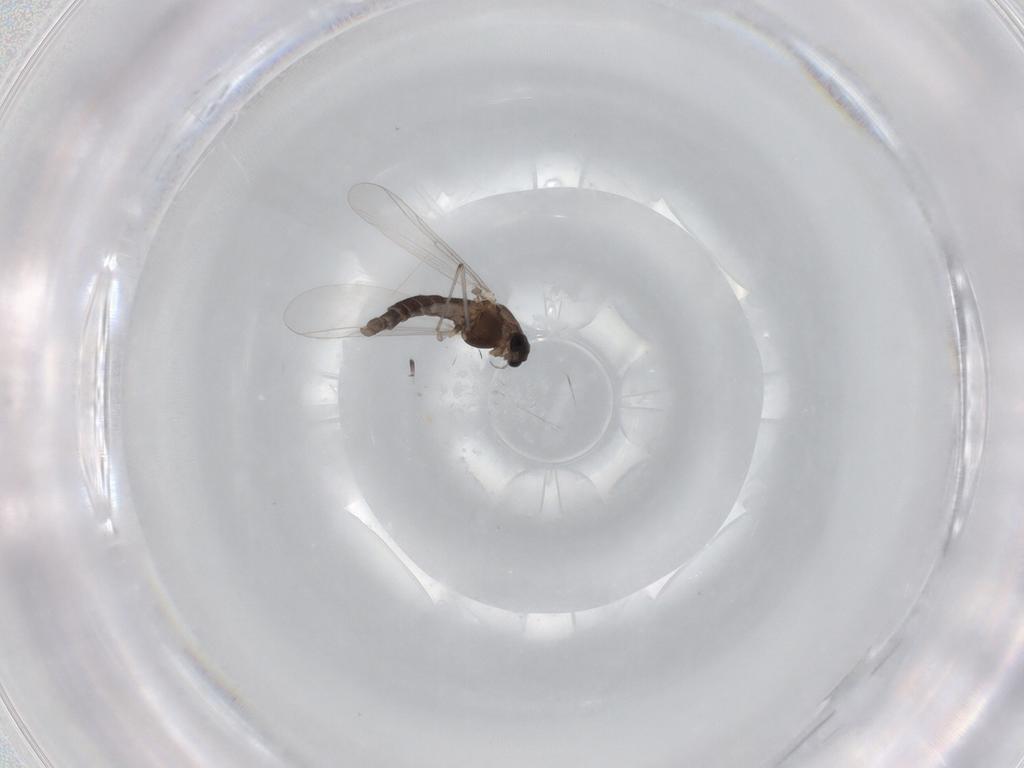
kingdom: Animalia
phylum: Arthropoda
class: Insecta
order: Diptera
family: Chironomidae
